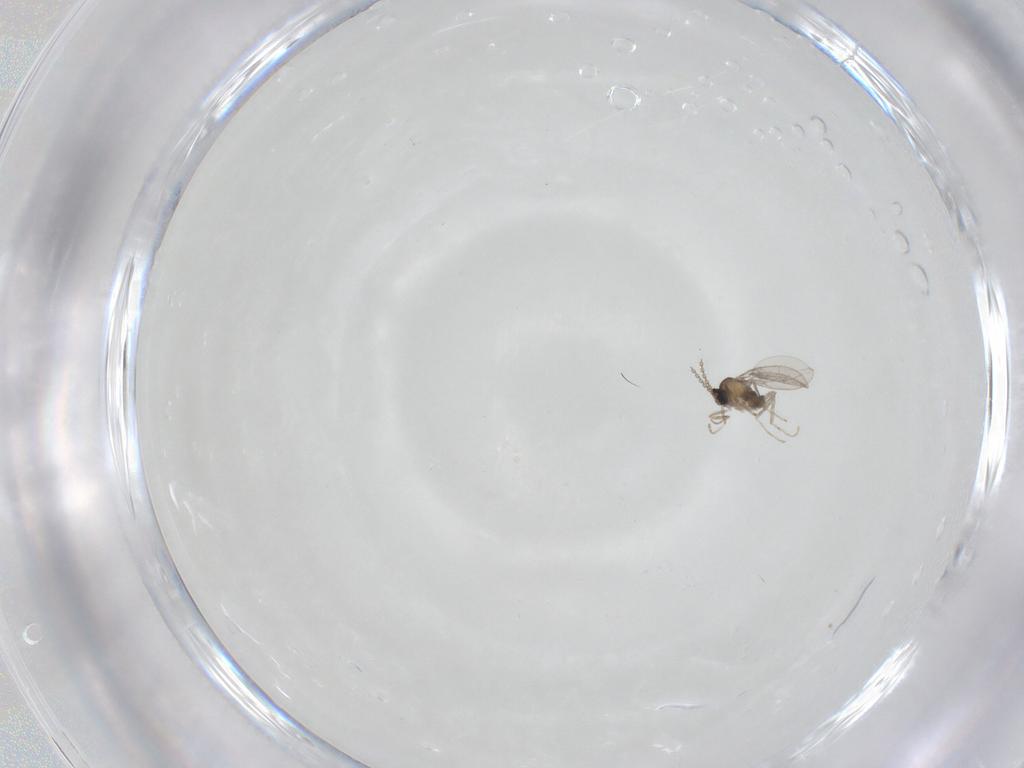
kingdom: Animalia
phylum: Arthropoda
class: Insecta
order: Diptera
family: Cecidomyiidae
